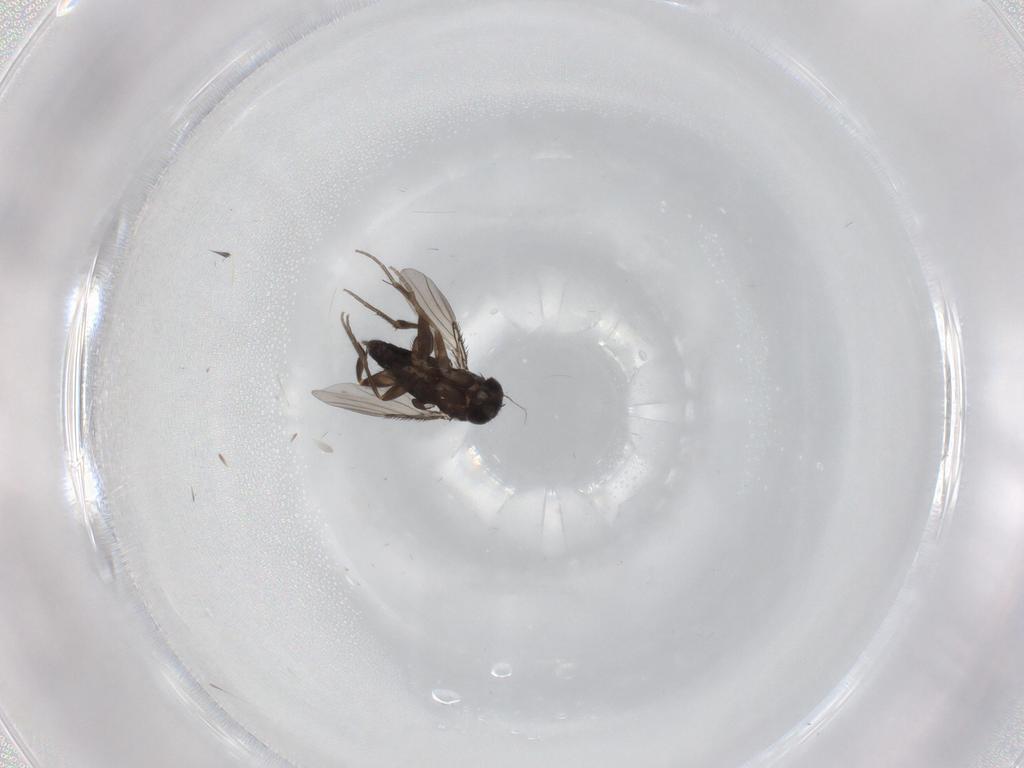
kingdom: Animalia
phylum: Arthropoda
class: Insecta
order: Diptera
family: Phoridae
